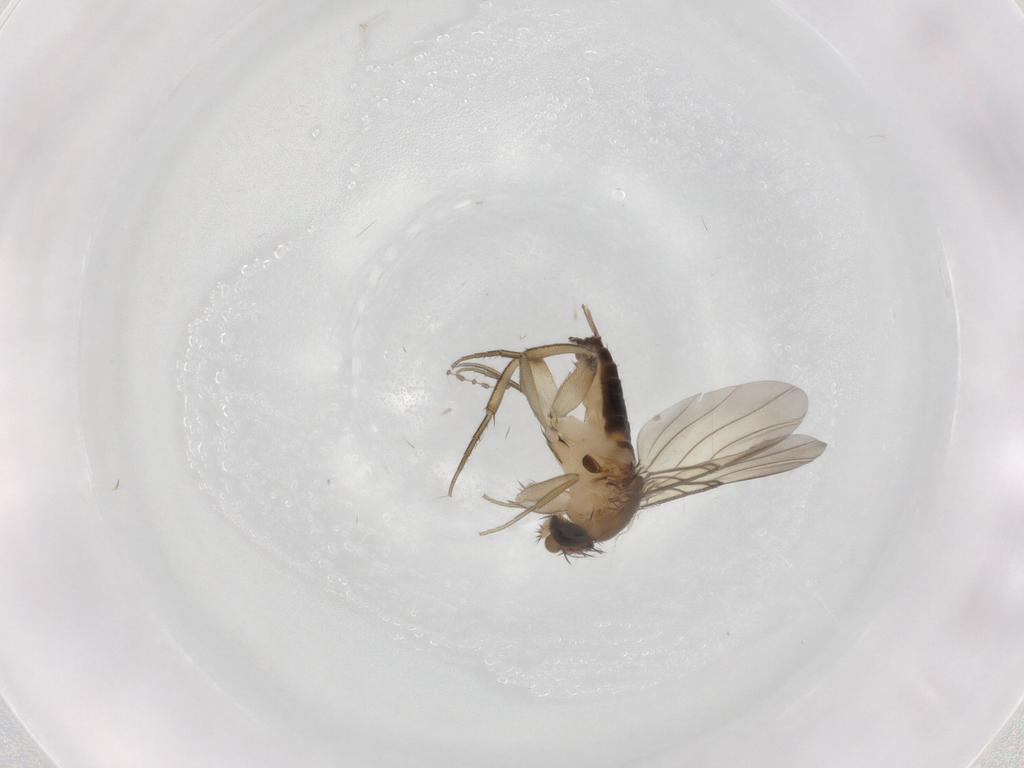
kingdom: Animalia
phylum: Arthropoda
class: Insecta
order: Diptera
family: Phoridae
